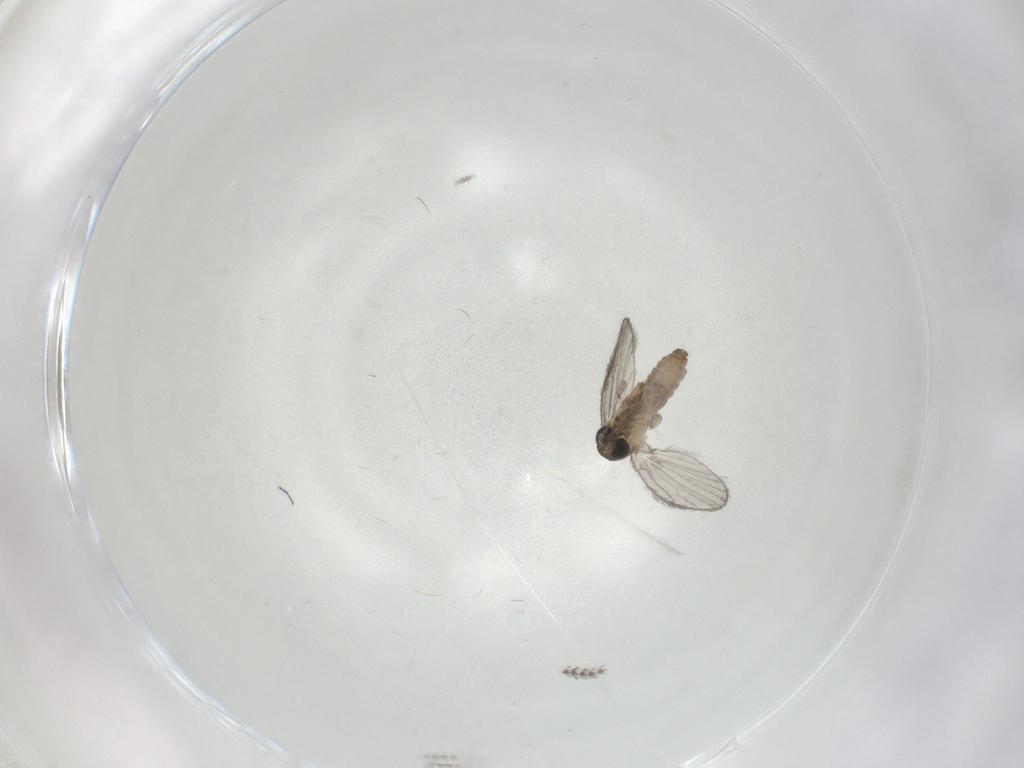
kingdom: Animalia
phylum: Arthropoda
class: Insecta
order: Diptera
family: Psychodidae
